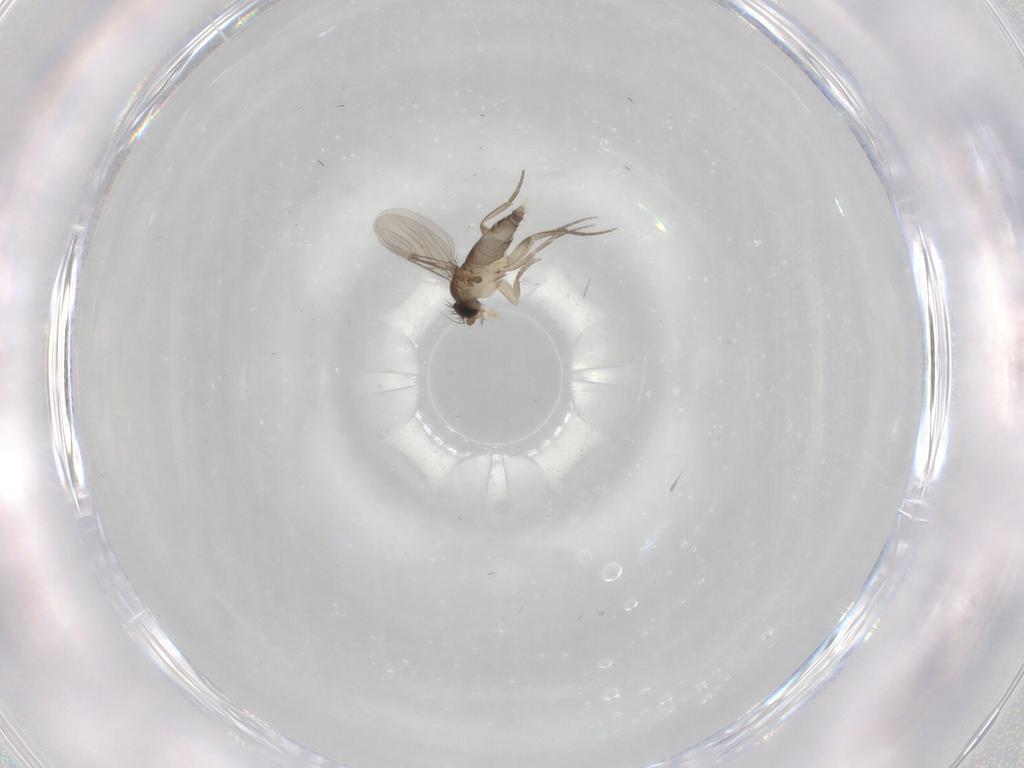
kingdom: Animalia
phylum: Arthropoda
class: Insecta
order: Diptera
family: Phoridae
